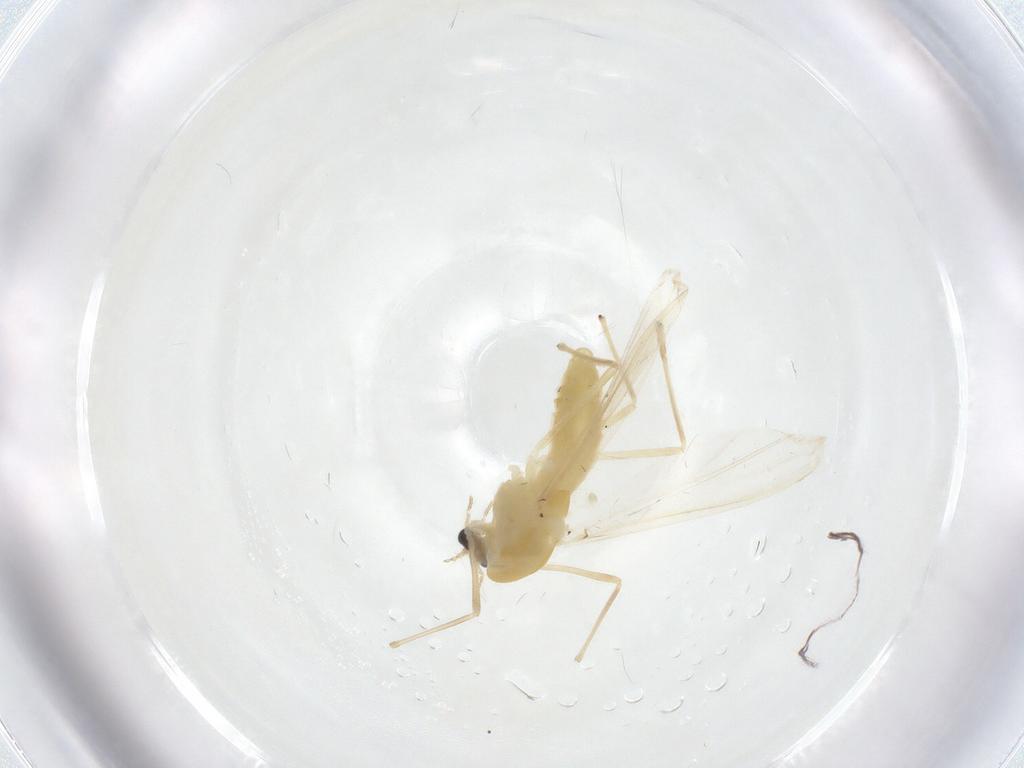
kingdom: Animalia
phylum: Arthropoda
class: Insecta
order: Diptera
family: Chironomidae
